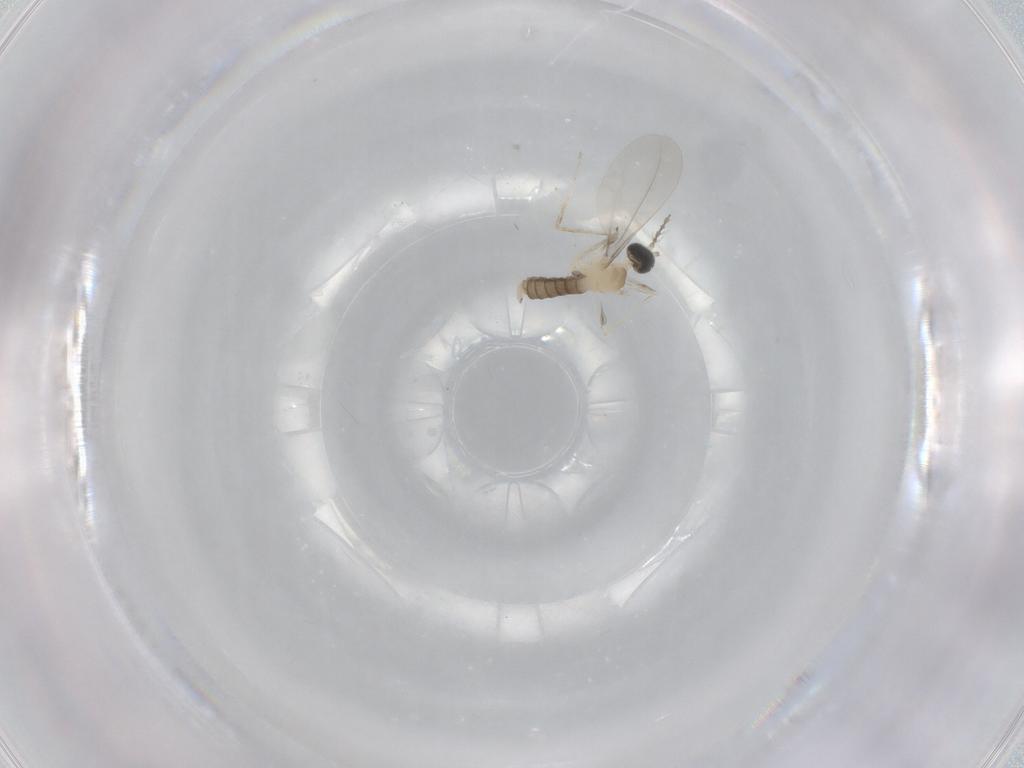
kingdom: Animalia
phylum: Arthropoda
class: Insecta
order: Diptera
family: Cecidomyiidae
